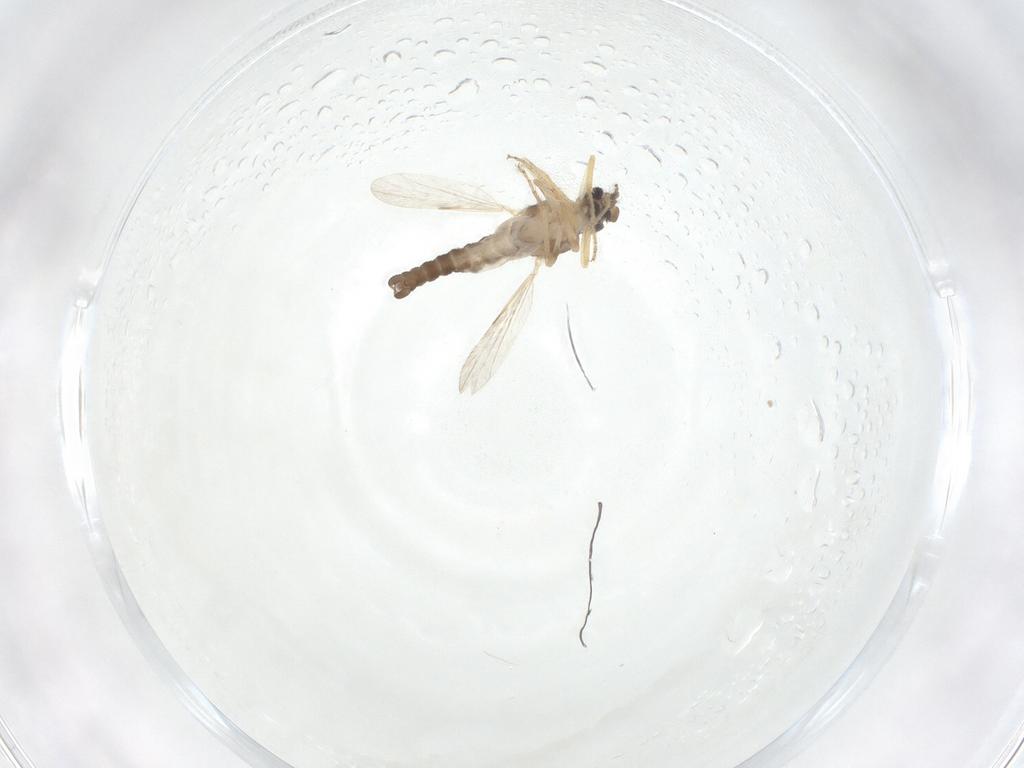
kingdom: Animalia
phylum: Arthropoda
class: Insecta
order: Diptera
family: Ceratopogonidae
